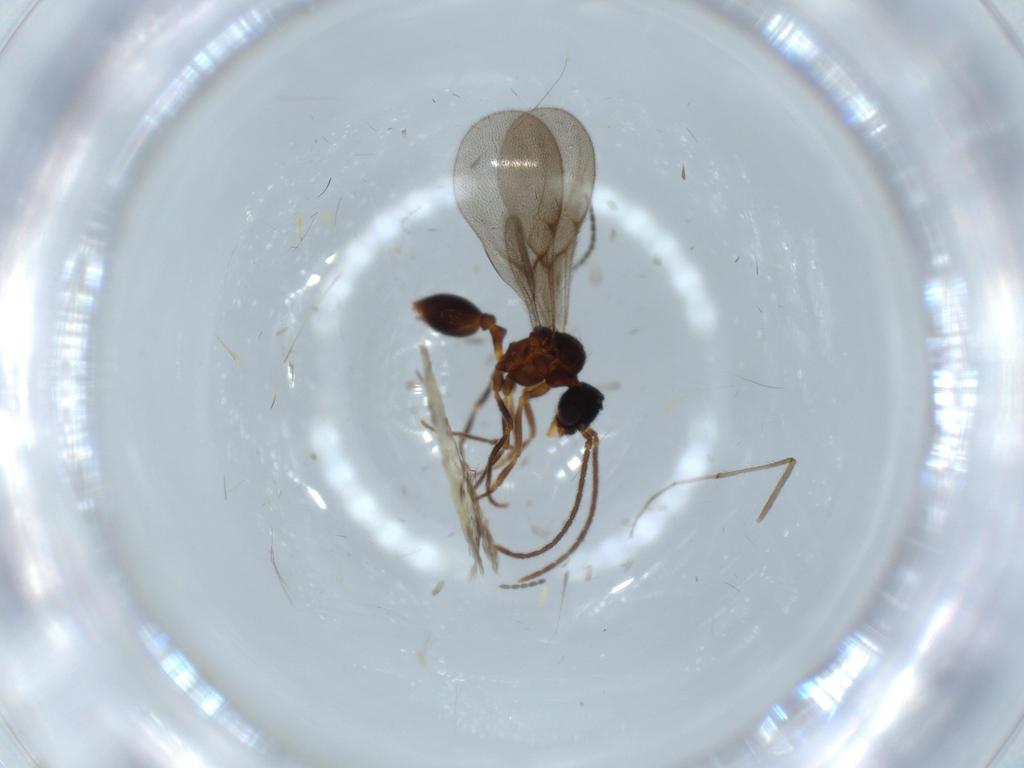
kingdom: Animalia
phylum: Arthropoda
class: Insecta
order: Hymenoptera
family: Formicidae
